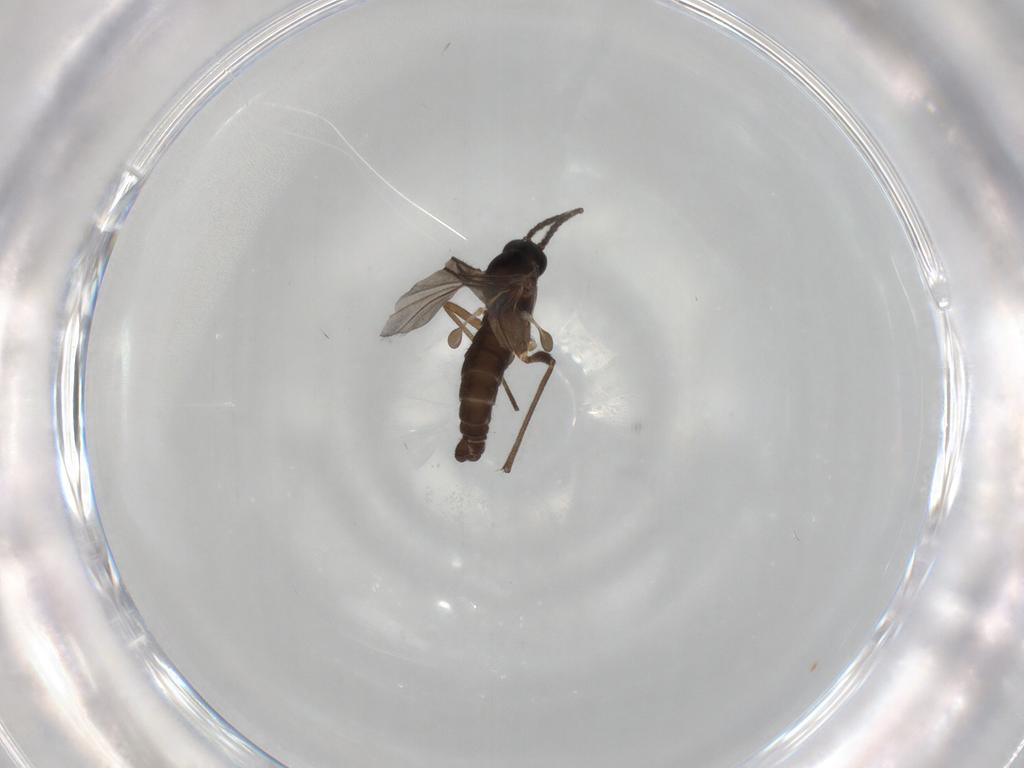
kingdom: Animalia
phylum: Arthropoda
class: Insecta
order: Diptera
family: Sciaridae
